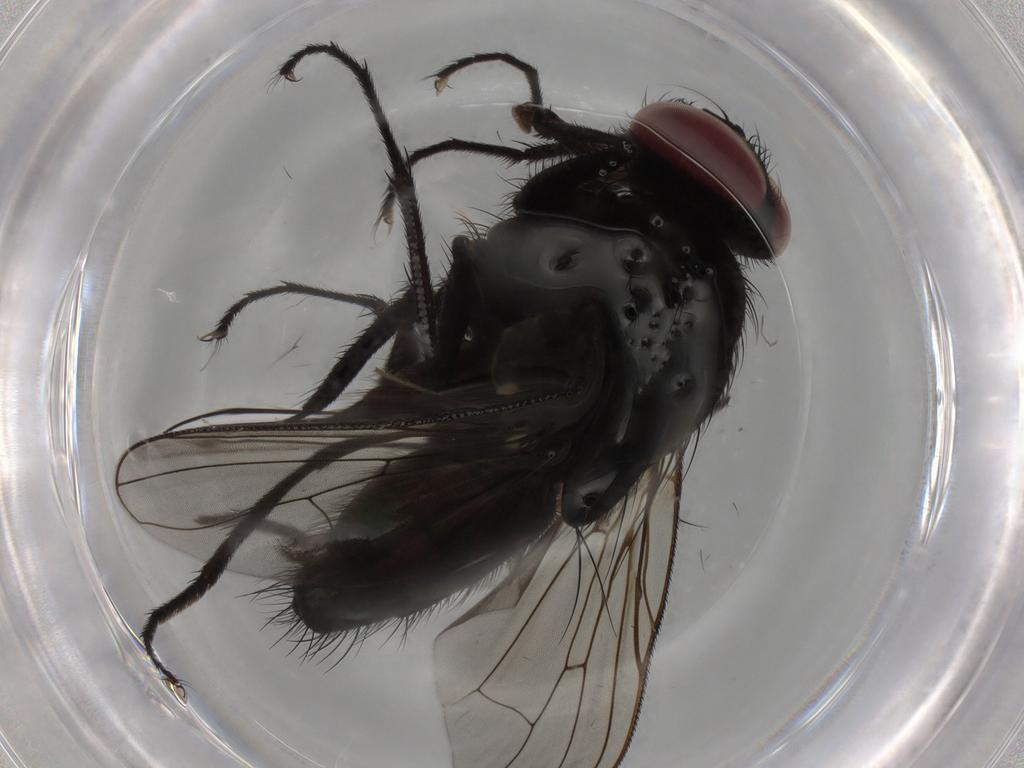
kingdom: Animalia
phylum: Arthropoda
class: Insecta
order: Diptera
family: Muscidae
